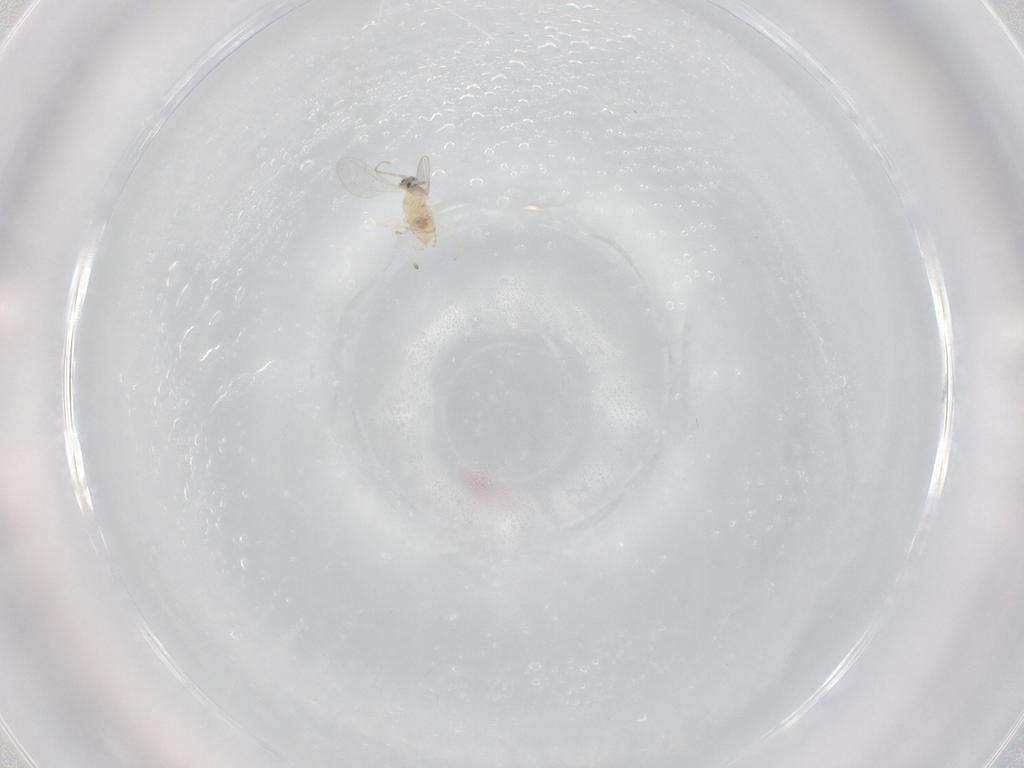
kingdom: Animalia
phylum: Arthropoda
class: Insecta
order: Diptera
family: Cecidomyiidae
